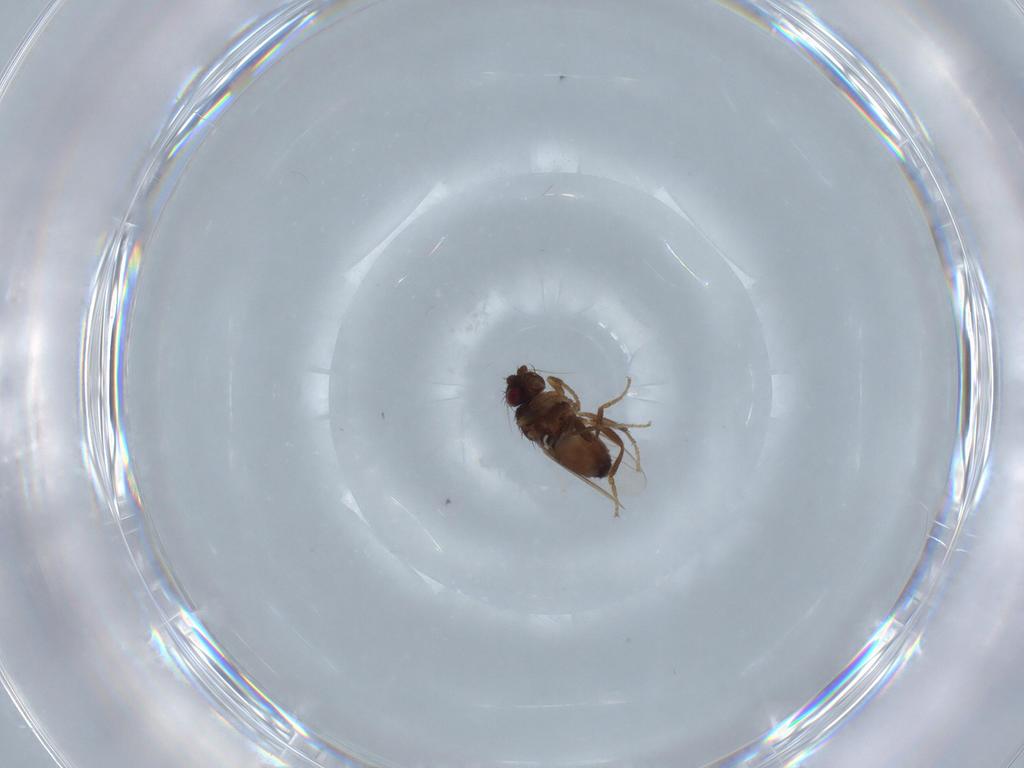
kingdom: Animalia
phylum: Arthropoda
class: Insecta
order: Diptera
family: Sphaeroceridae
